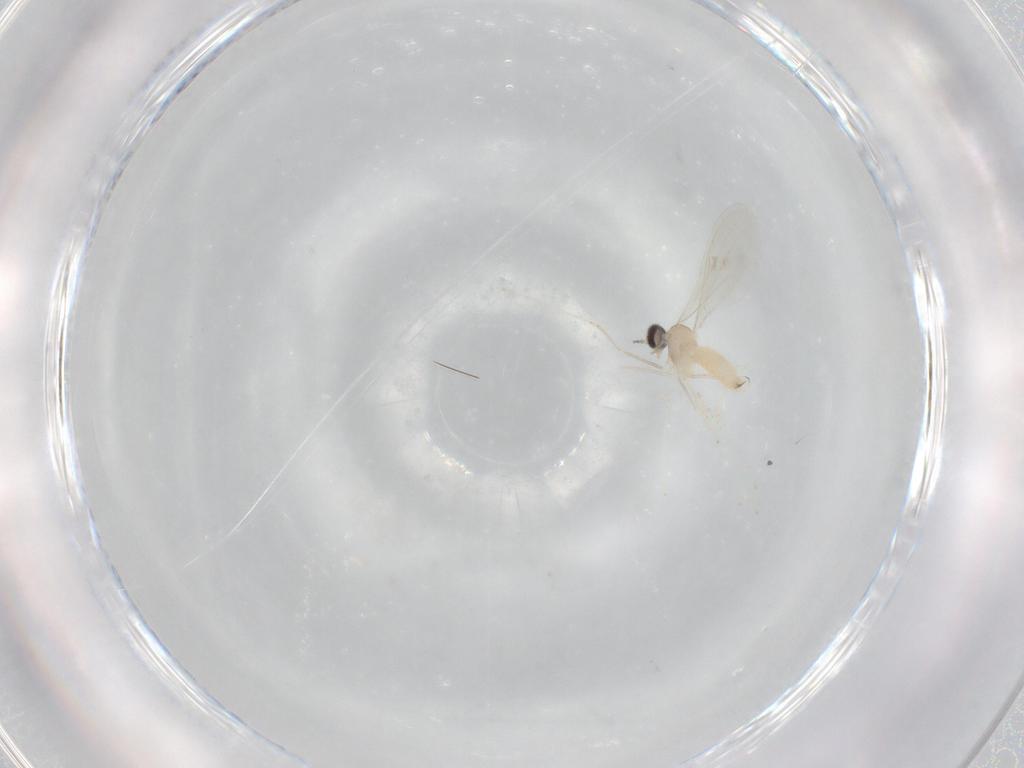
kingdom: Animalia
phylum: Arthropoda
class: Insecta
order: Diptera
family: Cecidomyiidae
